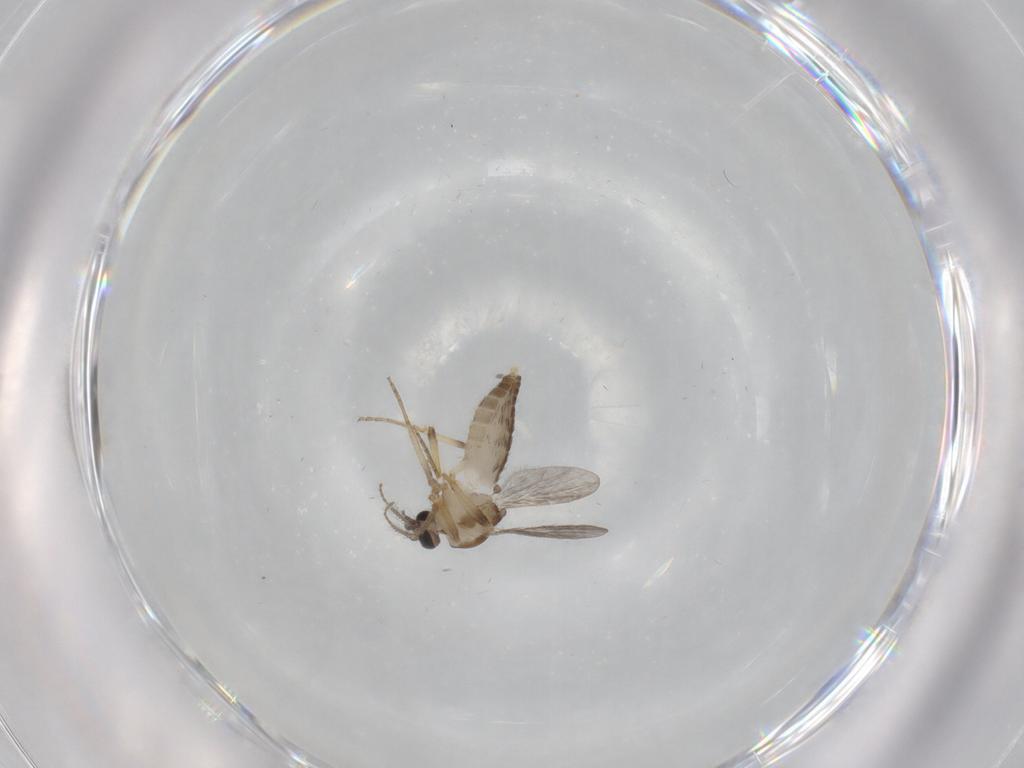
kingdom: Animalia
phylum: Arthropoda
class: Insecta
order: Diptera
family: Ceratopogonidae
